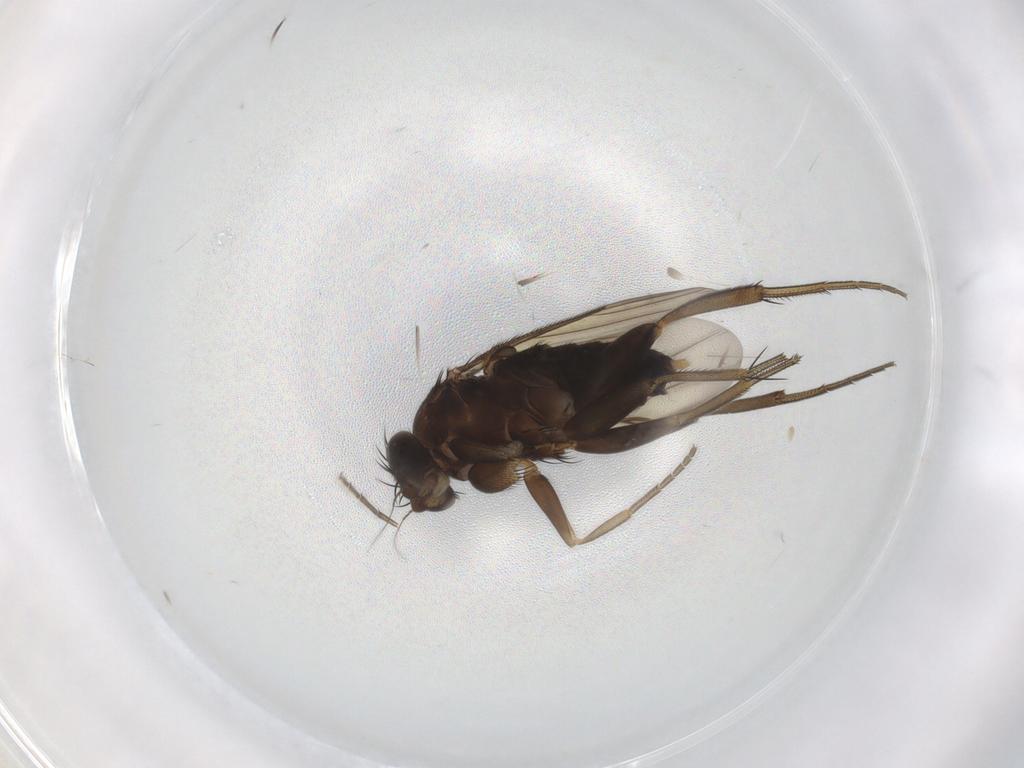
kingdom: Animalia
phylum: Arthropoda
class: Insecta
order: Diptera
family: Phoridae
